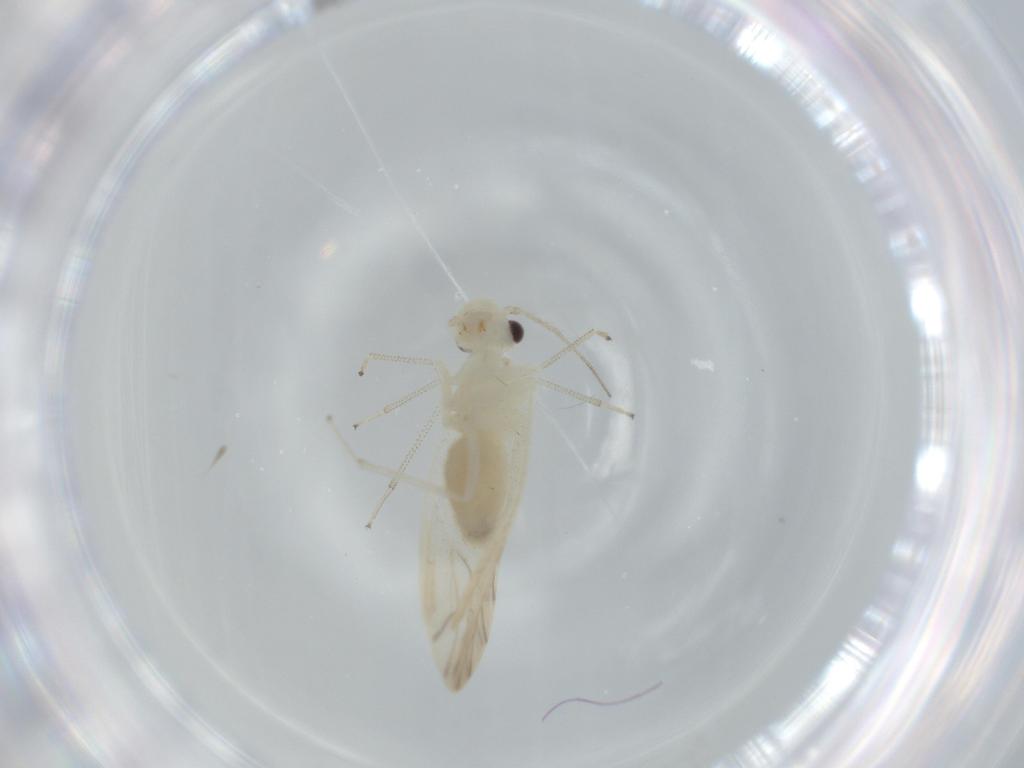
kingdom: Animalia
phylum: Arthropoda
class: Insecta
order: Psocodea
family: Caeciliusidae
